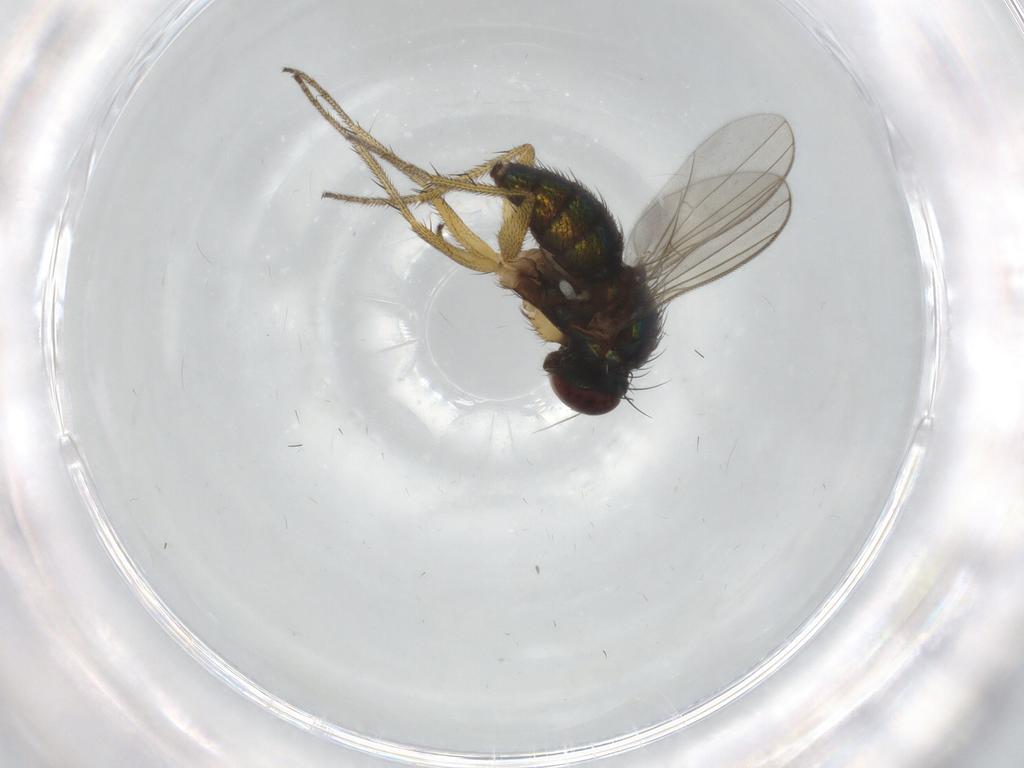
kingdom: Animalia
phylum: Arthropoda
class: Insecta
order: Diptera
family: Dolichopodidae
